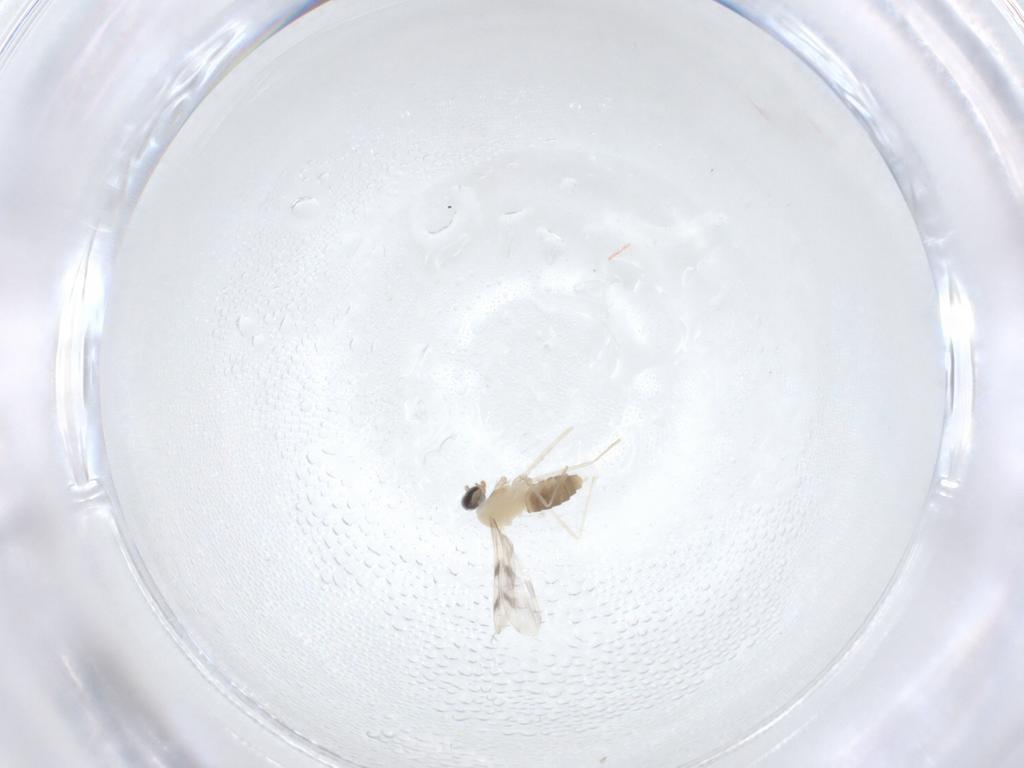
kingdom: Animalia
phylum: Arthropoda
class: Insecta
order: Diptera
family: Cecidomyiidae
